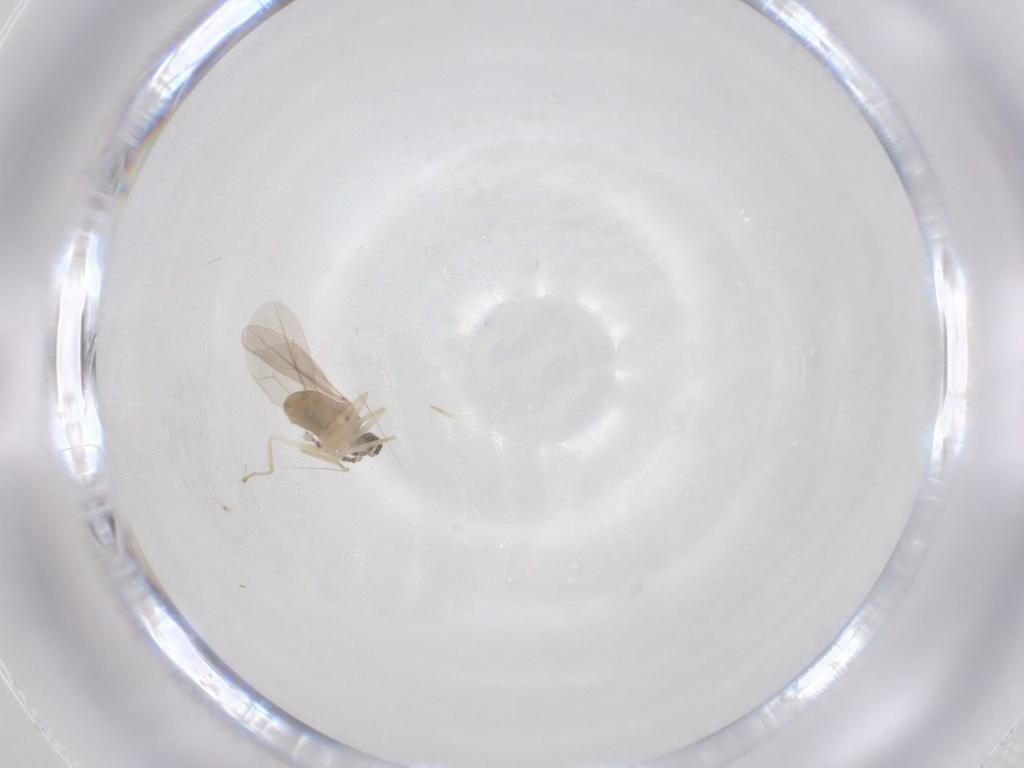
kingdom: Animalia
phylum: Arthropoda
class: Insecta
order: Diptera
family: Cecidomyiidae
